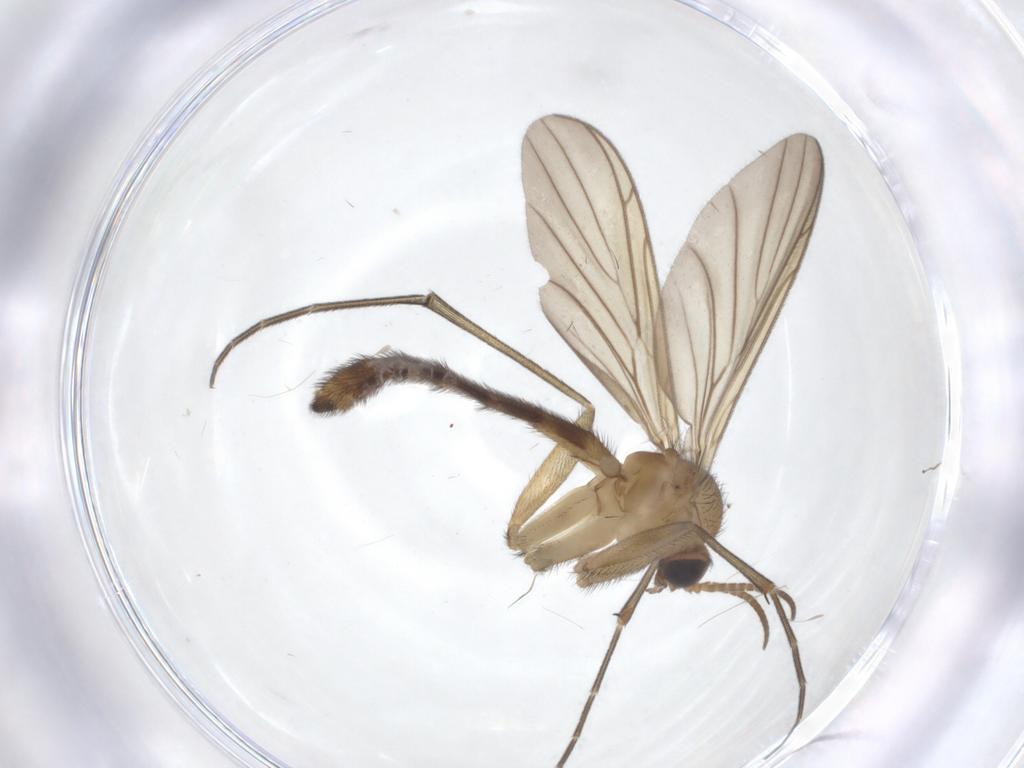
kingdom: Animalia
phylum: Arthropoda
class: Insecta
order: Diptera
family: Keroplatidae
